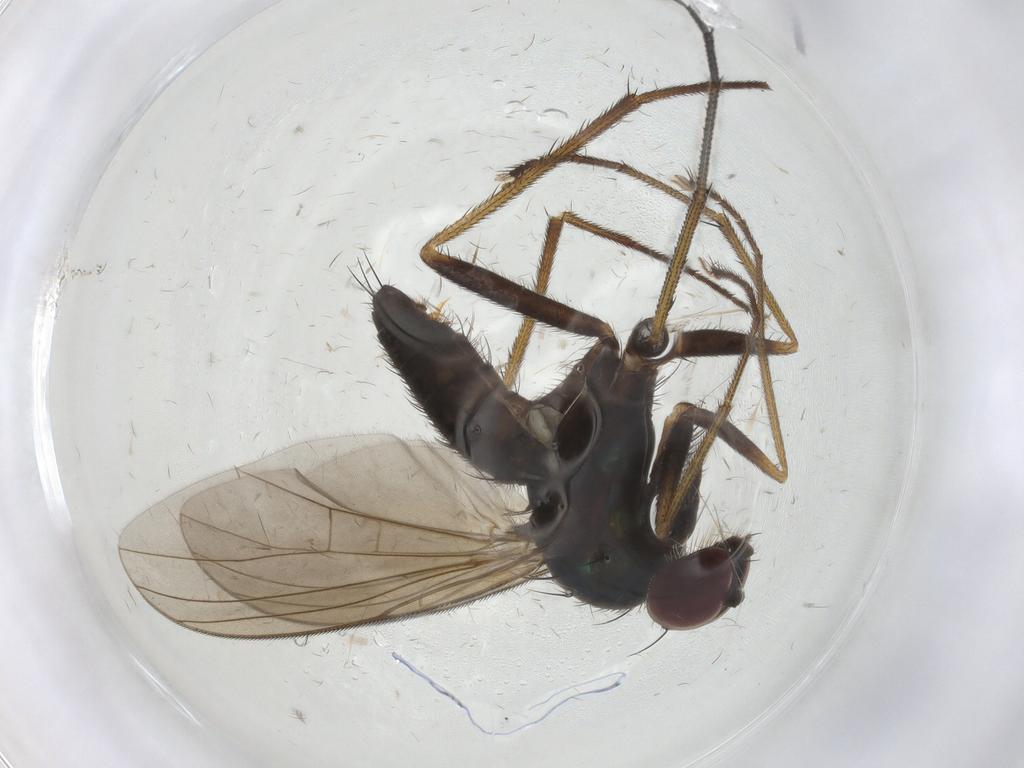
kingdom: Animalia
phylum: Arthropoda
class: Insecta
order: Diptera
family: Dolichopodidae
